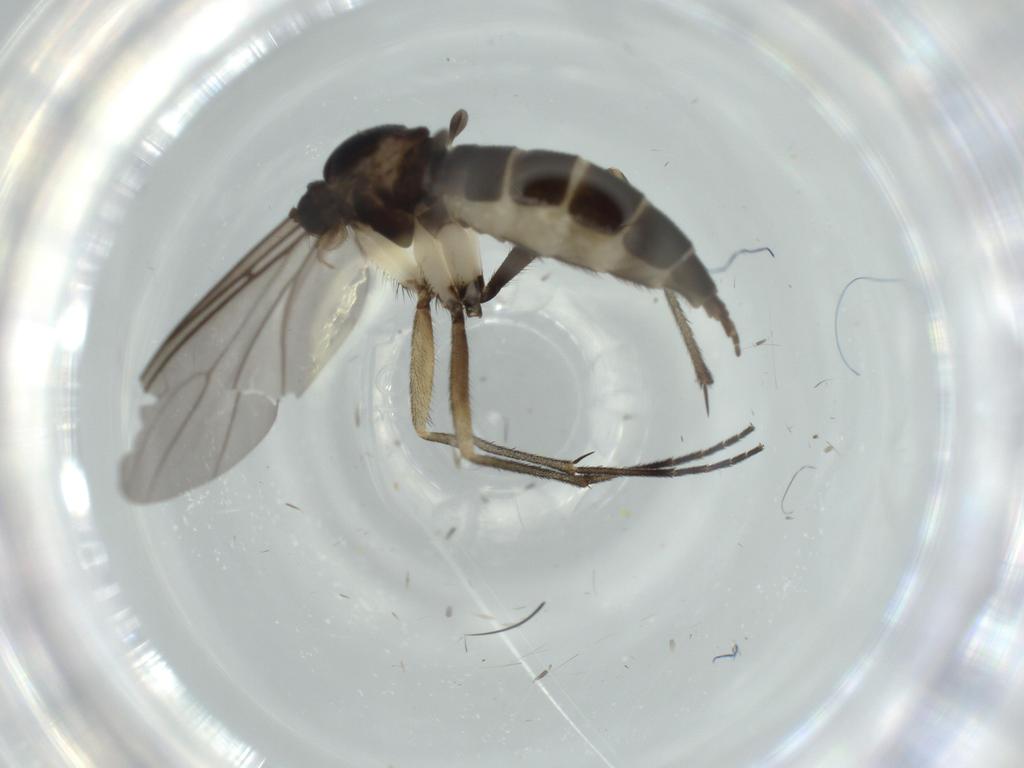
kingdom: Animalia
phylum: Arthropoda
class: Insecta
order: Diptera
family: Sciaridae
